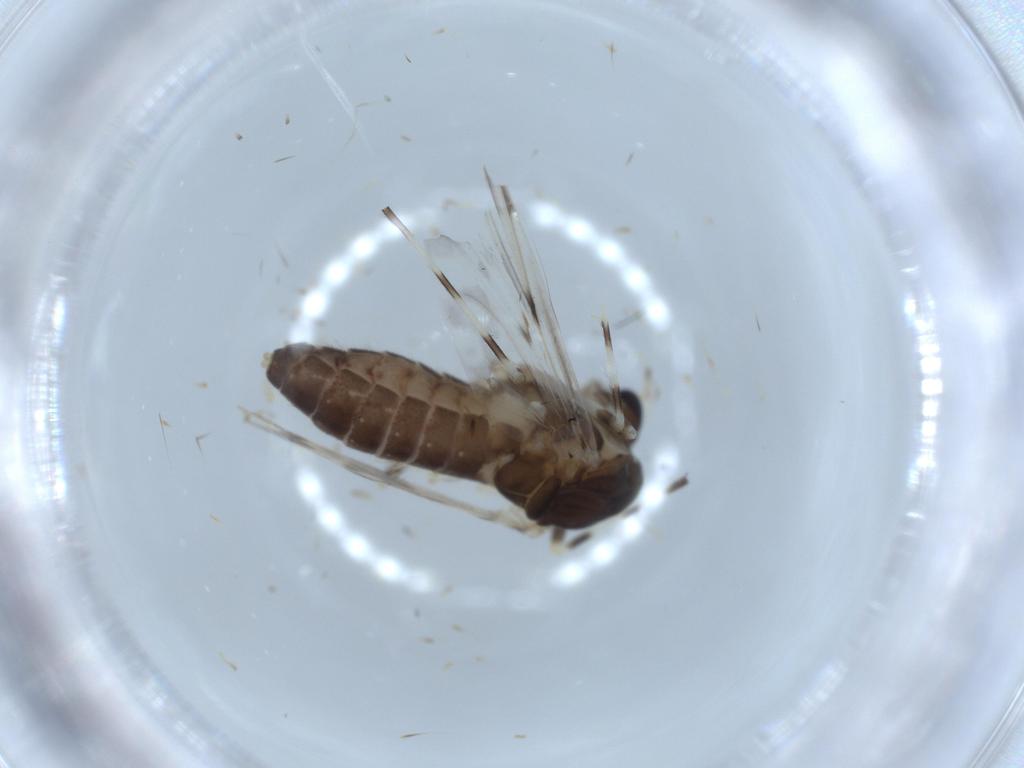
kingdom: Animalia
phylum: Arthropoda
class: Insecta
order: Diptera
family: Chironomidae
